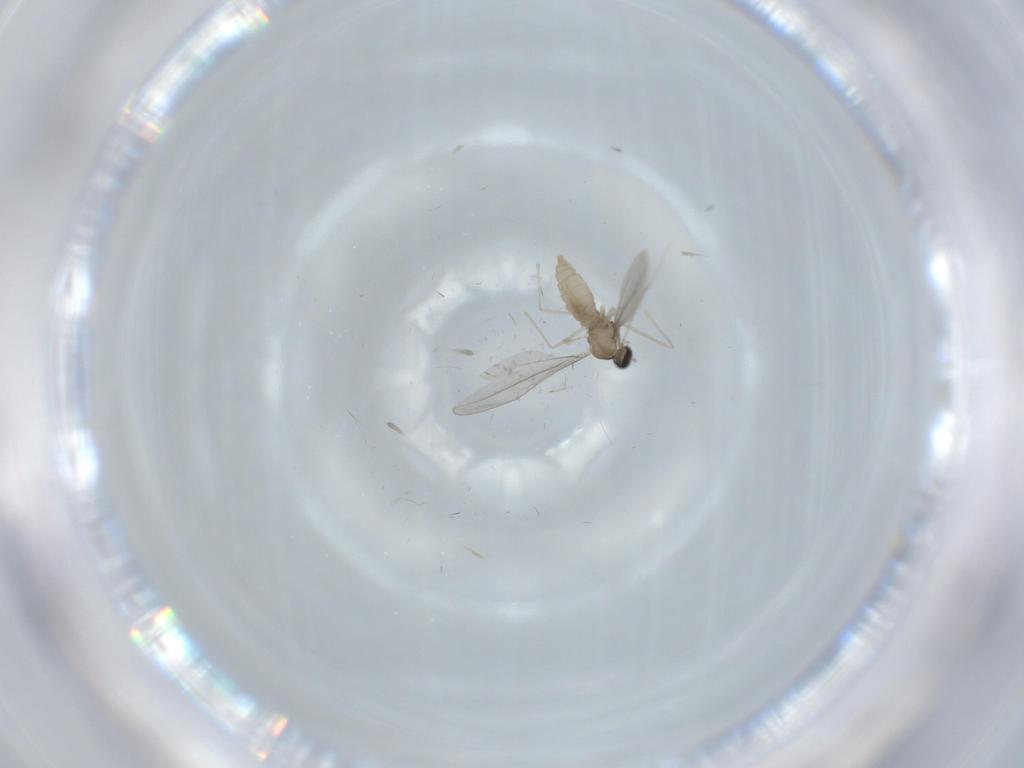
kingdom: Animalia
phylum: Arthropoda
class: Insecta
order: Diptera
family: Cecidomyiidae
